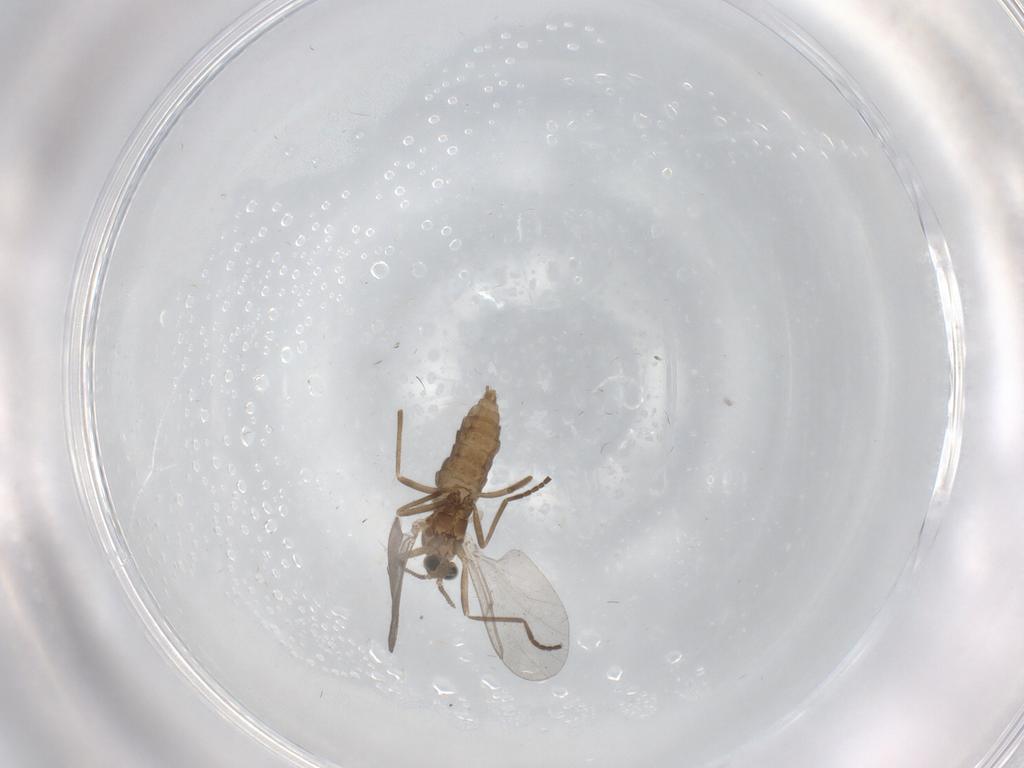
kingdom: Animalia
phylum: Arthropoda
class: Insecta
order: Diptera
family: Cecidomyiidae
